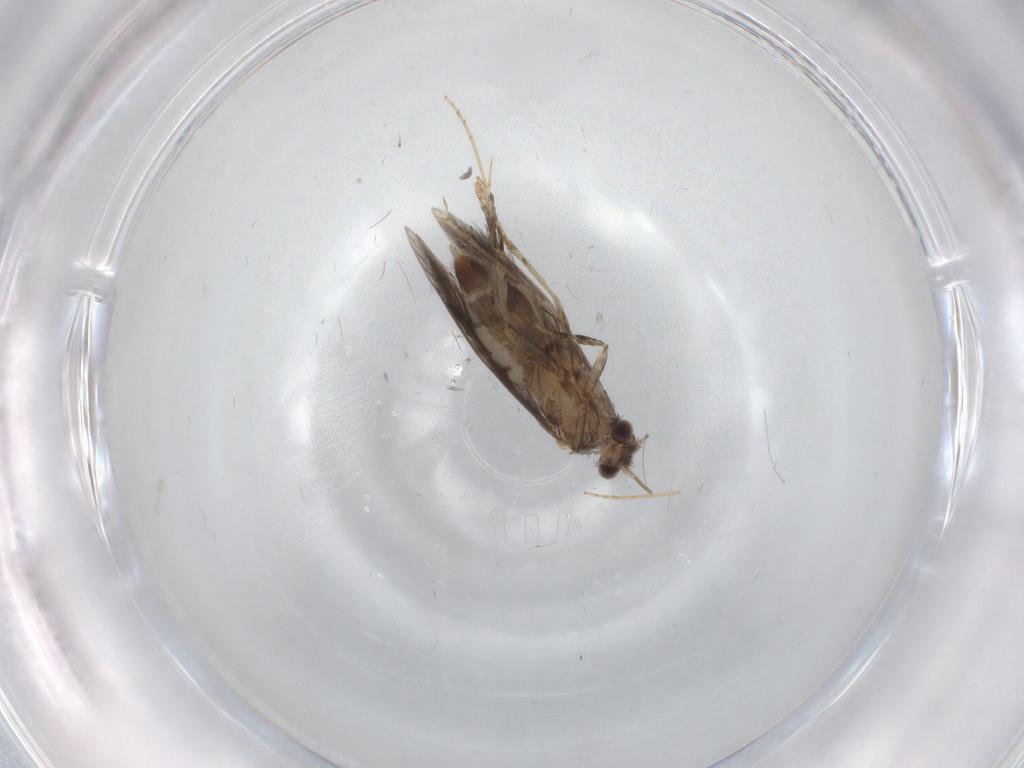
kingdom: Animalia
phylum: Arthropoda
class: Insecta
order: Trichoptera
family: Hydroptilidae
